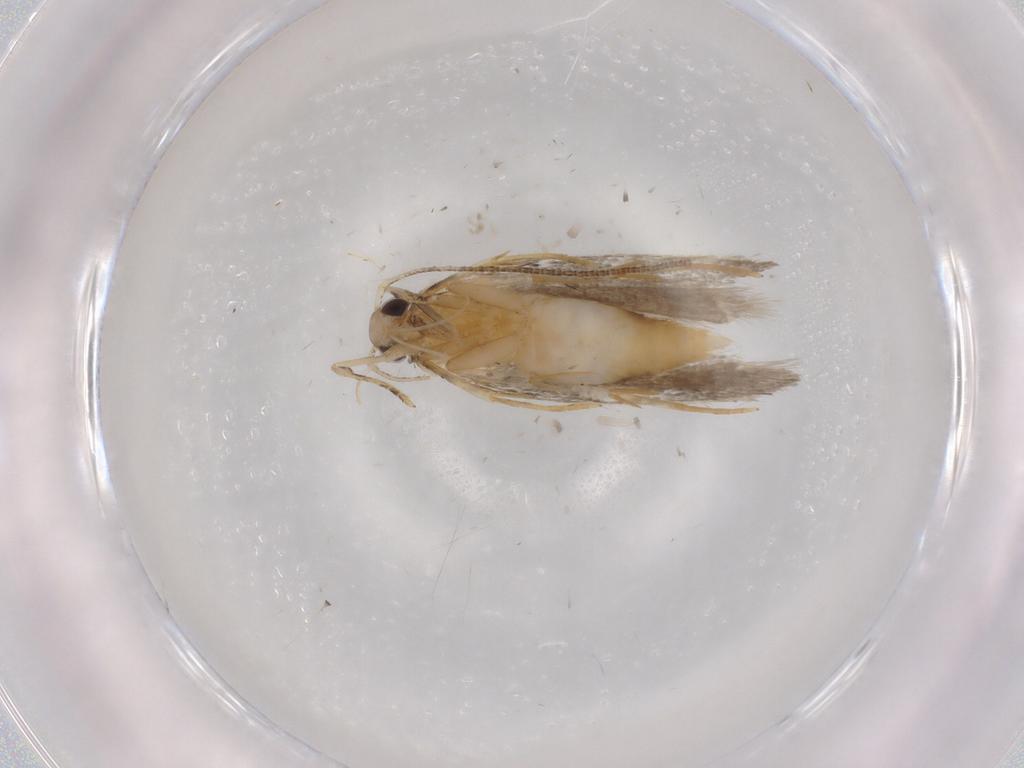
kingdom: Animalia
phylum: Arthropoda
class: Insecta
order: Lepidoptera
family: Autostichidae
